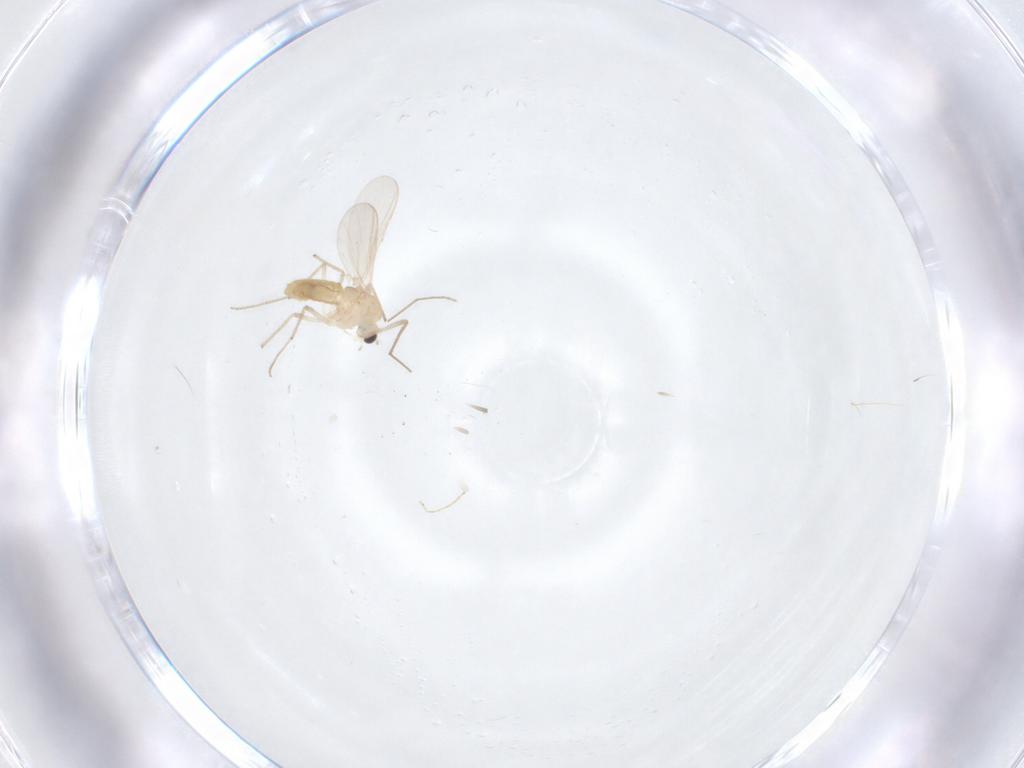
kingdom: Animalia
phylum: Arthropoda
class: Insecta
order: Diptera
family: Chironomidae
